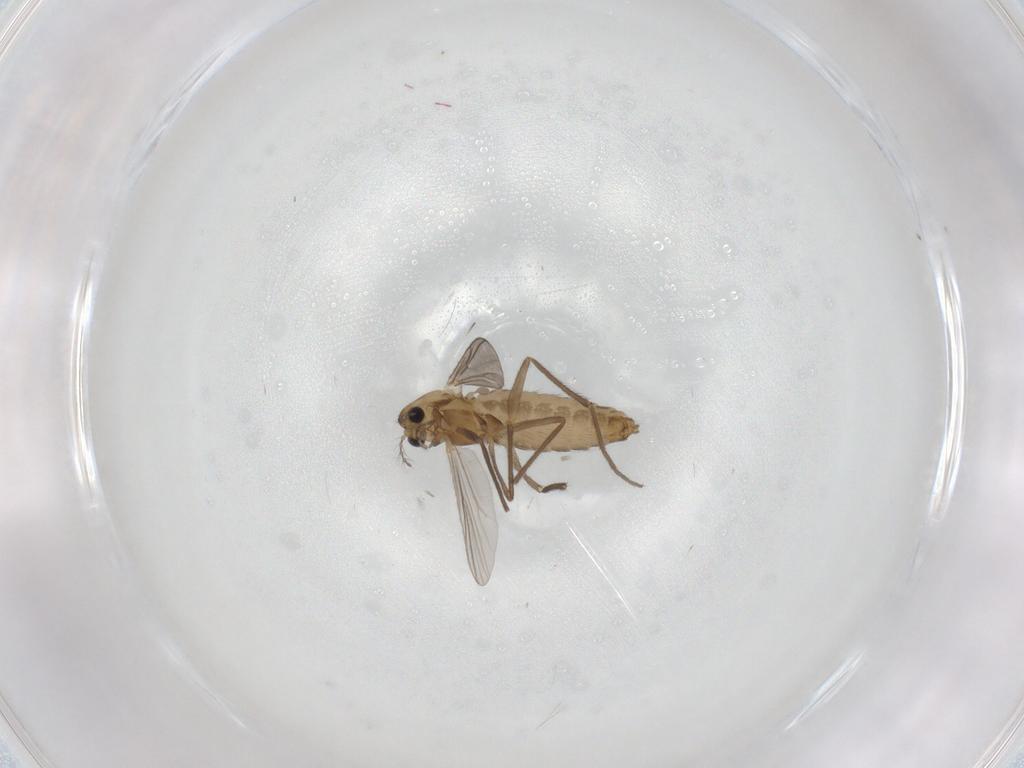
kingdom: Animalia
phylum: Arthropoda
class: Insecta
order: Diptera
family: Chironomidae
